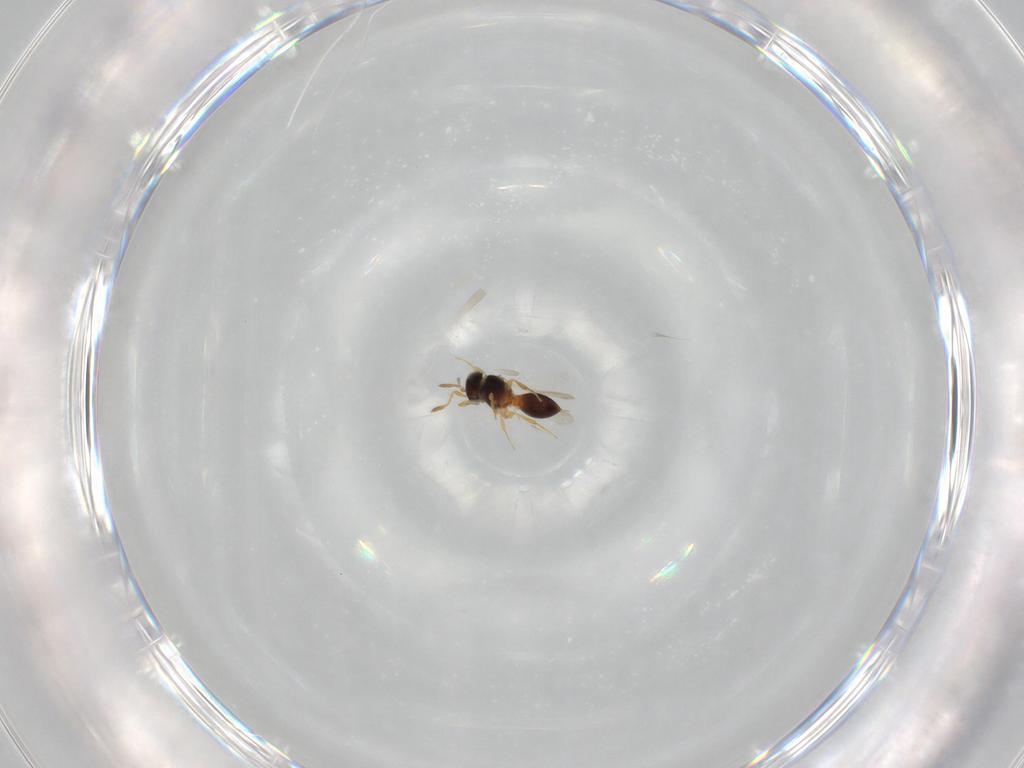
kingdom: Animalia
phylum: Arthropoda
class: Insecta
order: Hymenoptera
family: Platygastridae
